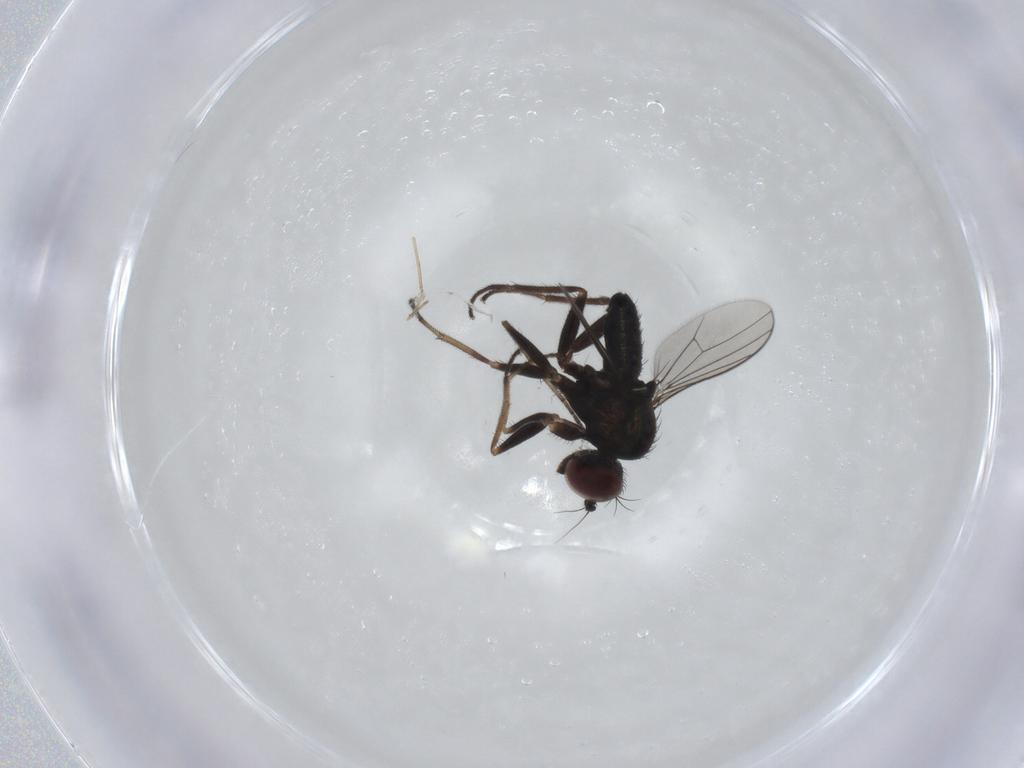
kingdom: Animalia
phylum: Arthropoda
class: Insecta
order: Diptera
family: Dolichopodidae
